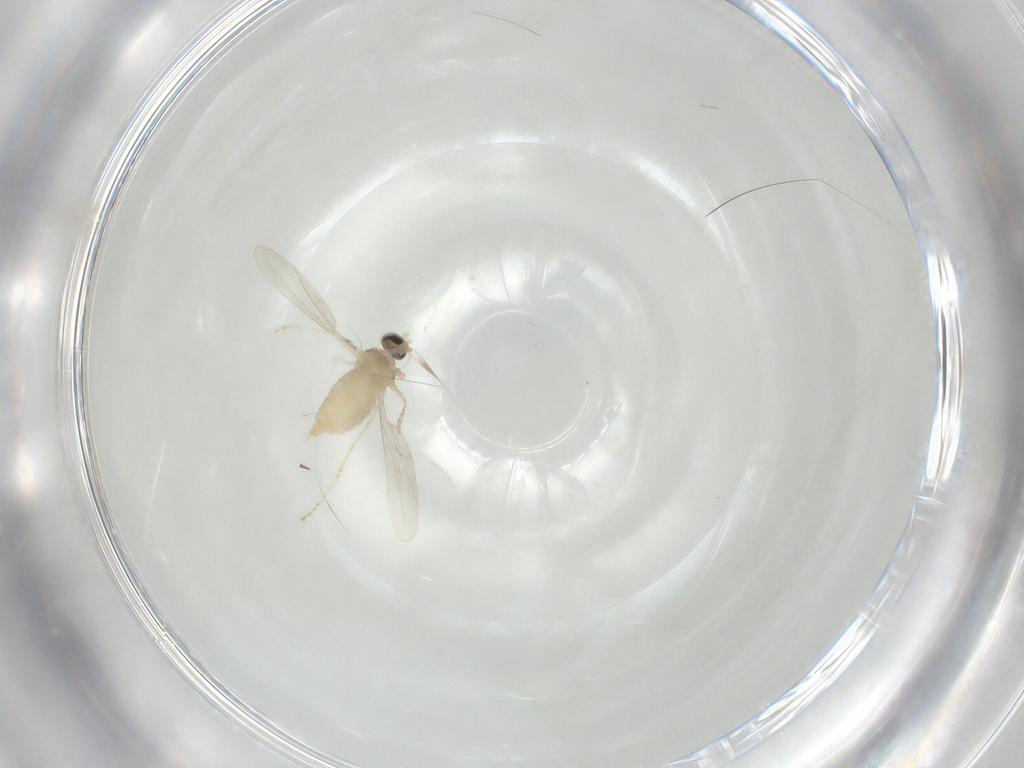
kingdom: Animalia
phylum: Arthropoda
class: Insecta
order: Diptera
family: Cecidomyiidae
